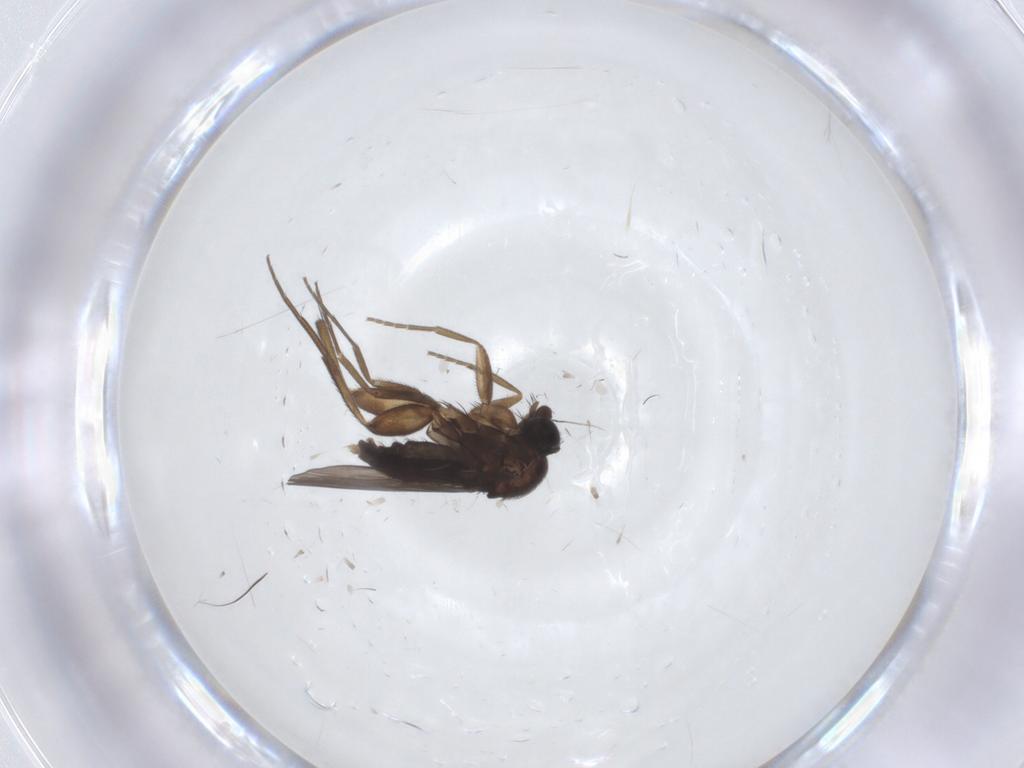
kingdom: Animalia
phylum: Arthropoda
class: Insecta
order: Diptera
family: Phoridae
